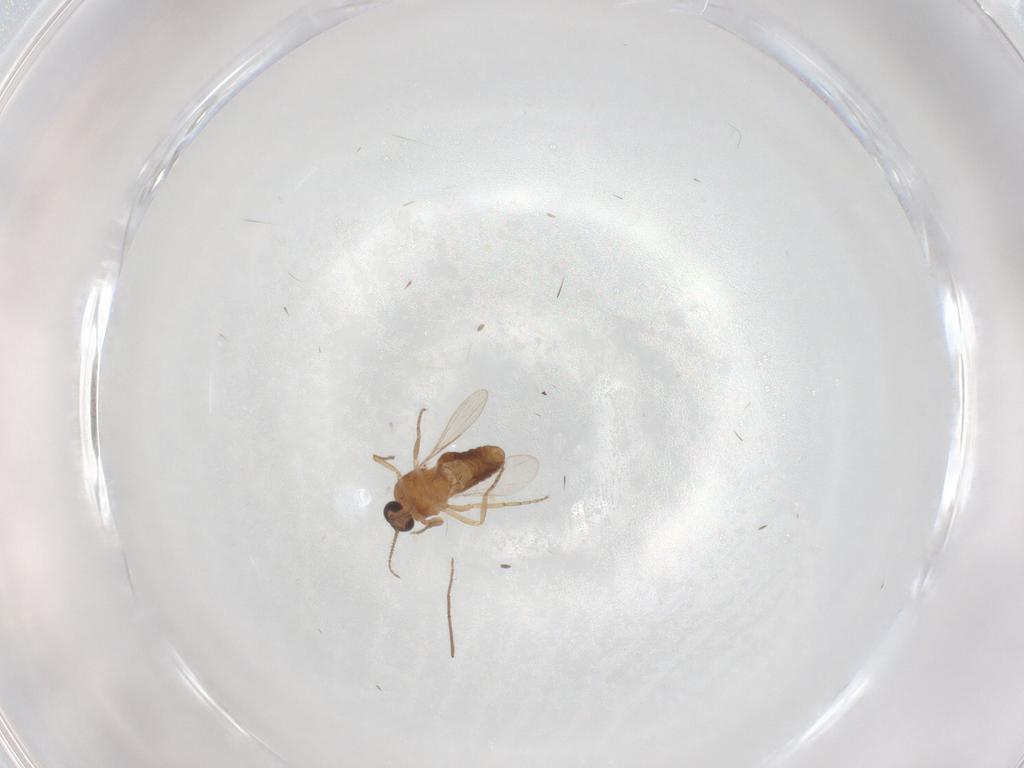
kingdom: Animalia
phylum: Arthropoda
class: Insecta
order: Diptera
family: Ceratopogonidae
